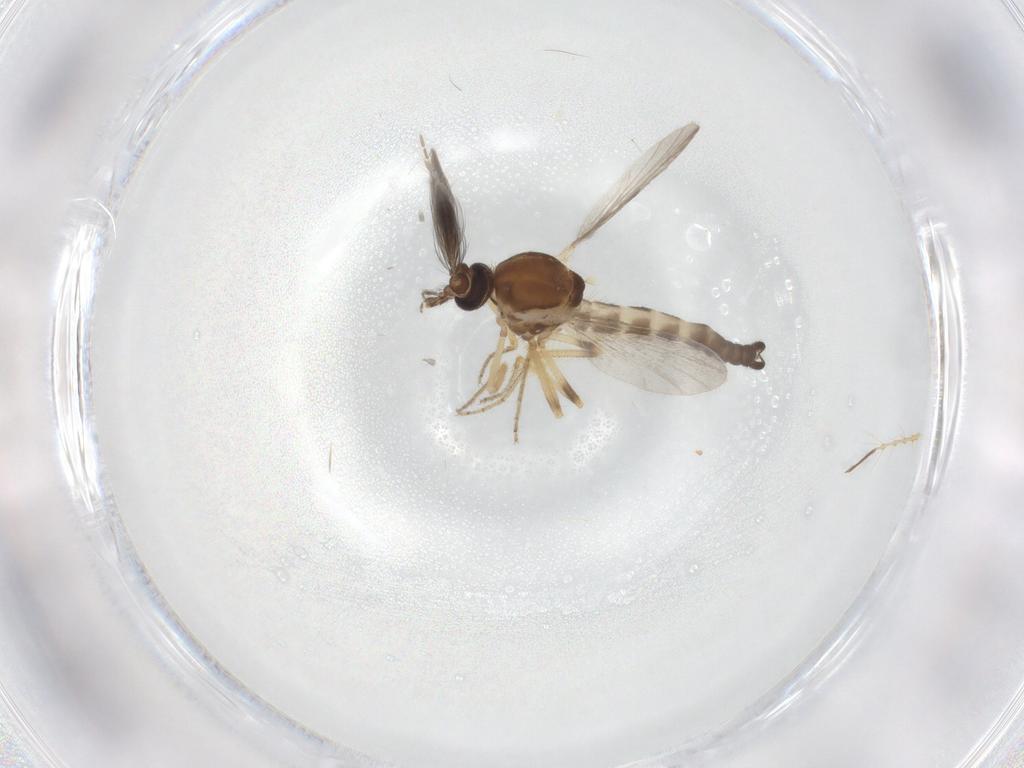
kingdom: Animalia
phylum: Arthropoda
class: Insecta
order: Diptera
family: Ceratopogonidae
